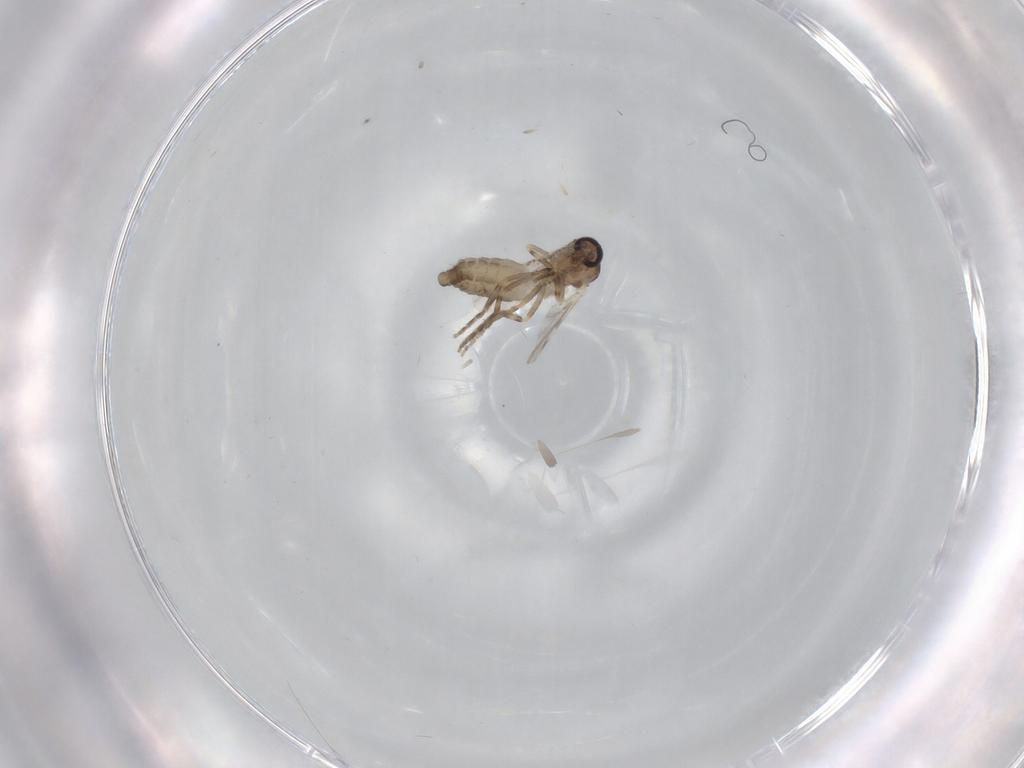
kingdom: Animalia
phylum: Arthropoda
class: Insecta
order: Diptera
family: Ceratopogonidae
